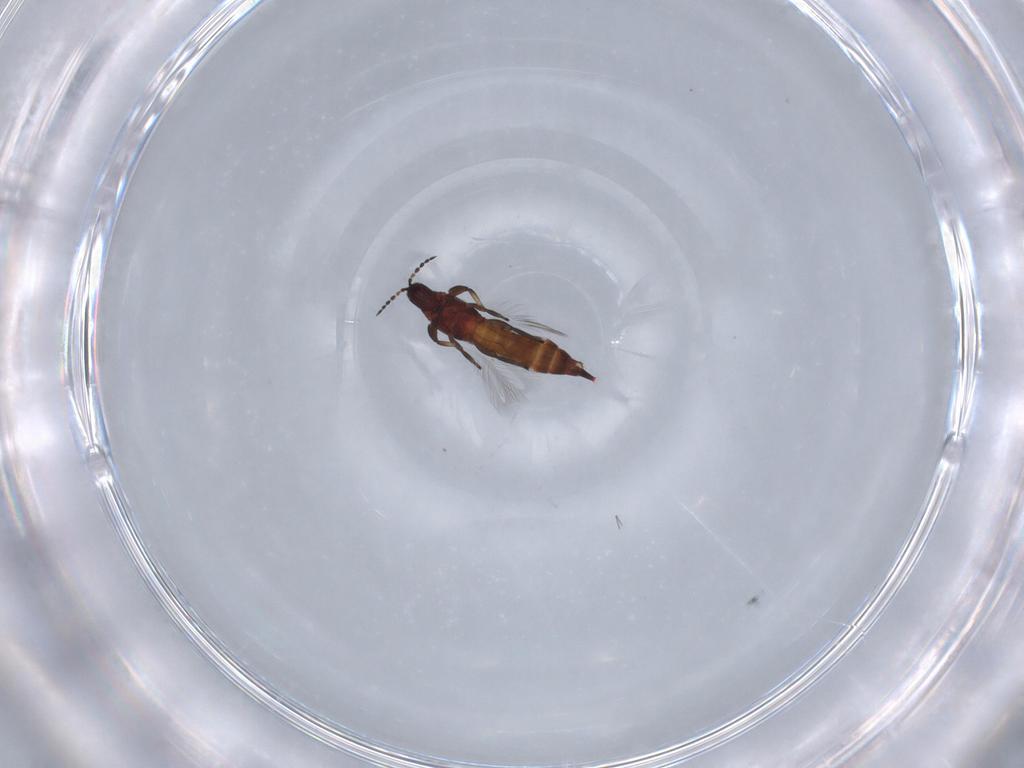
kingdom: Animalia
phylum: Arthropoda
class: Insecta
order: Thysanoptera
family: Phlaeothripidae
